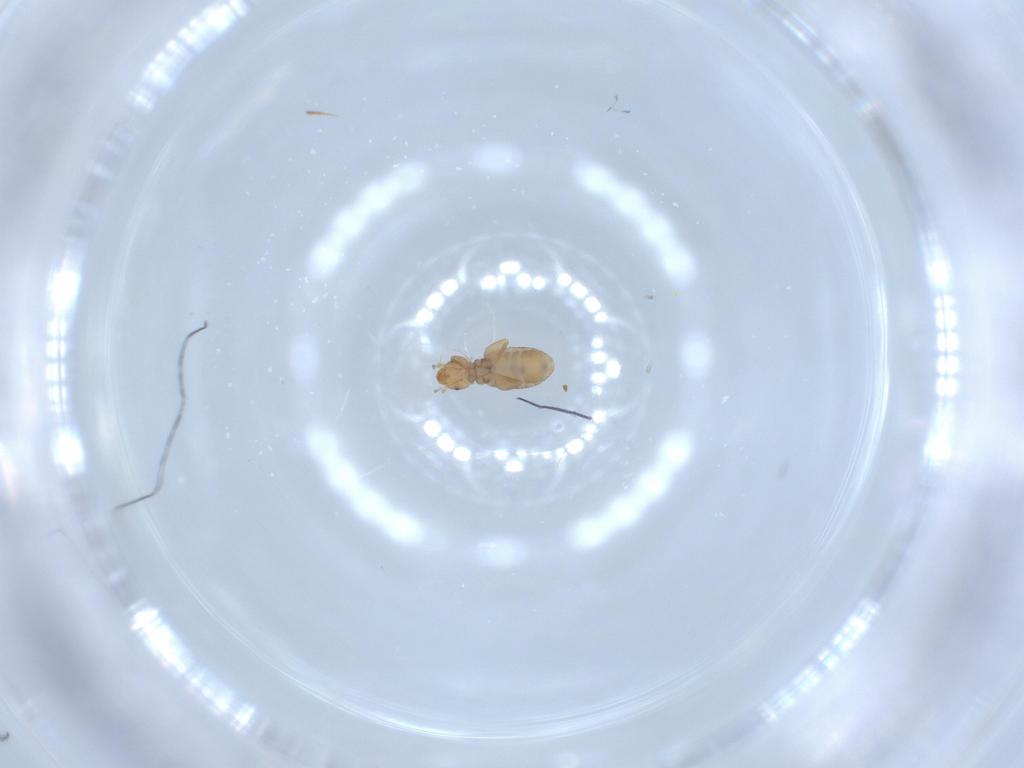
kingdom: Animalia
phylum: Arthropoda
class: Insecta
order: Psocodea
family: Liposcelididae
